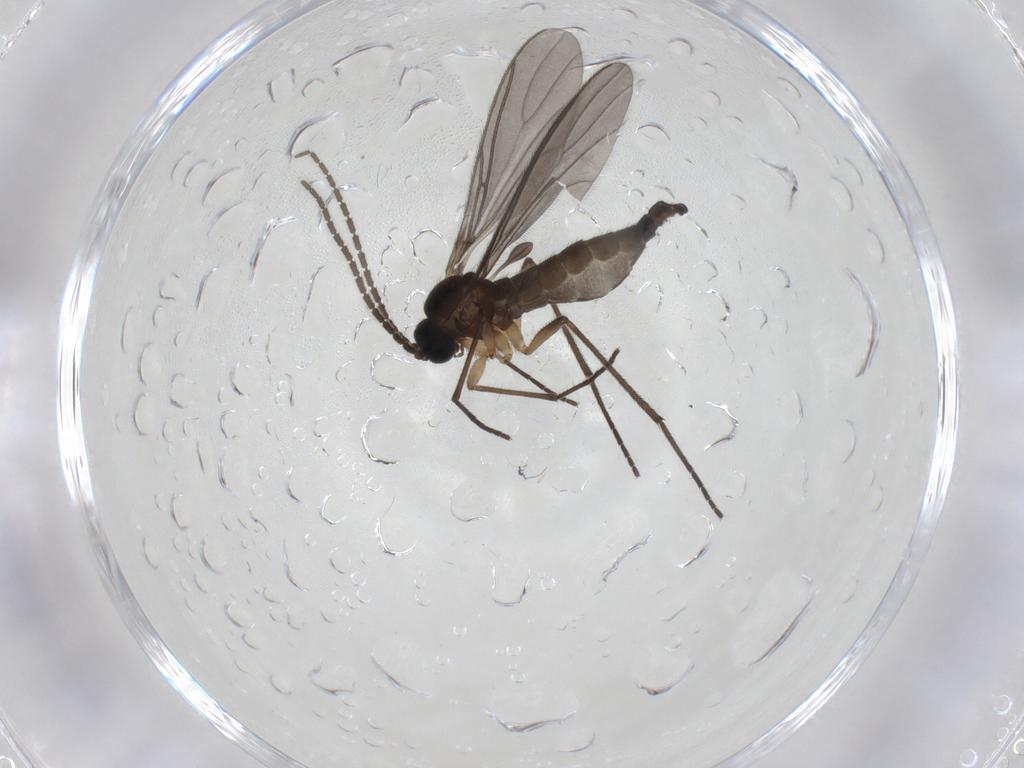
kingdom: Animalia
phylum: Arthropoda
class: Insecta
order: Diptera
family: Sciaridae
